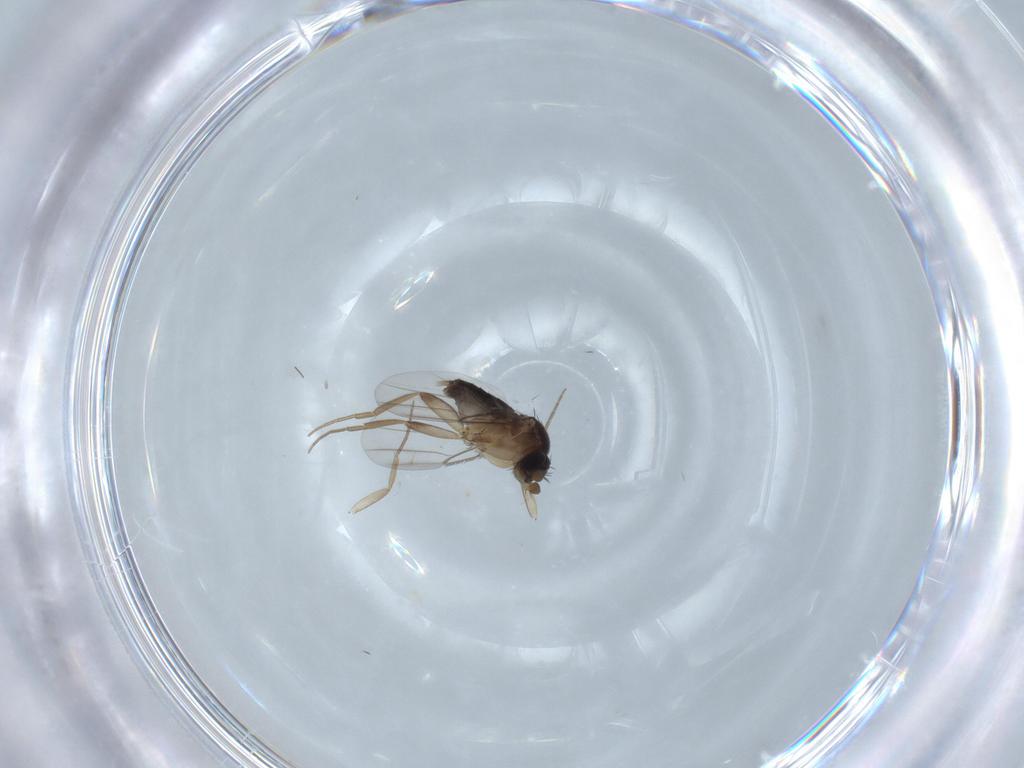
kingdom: Animalia
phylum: Arthropoda
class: Insecta
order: Diptera
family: Phoridae
